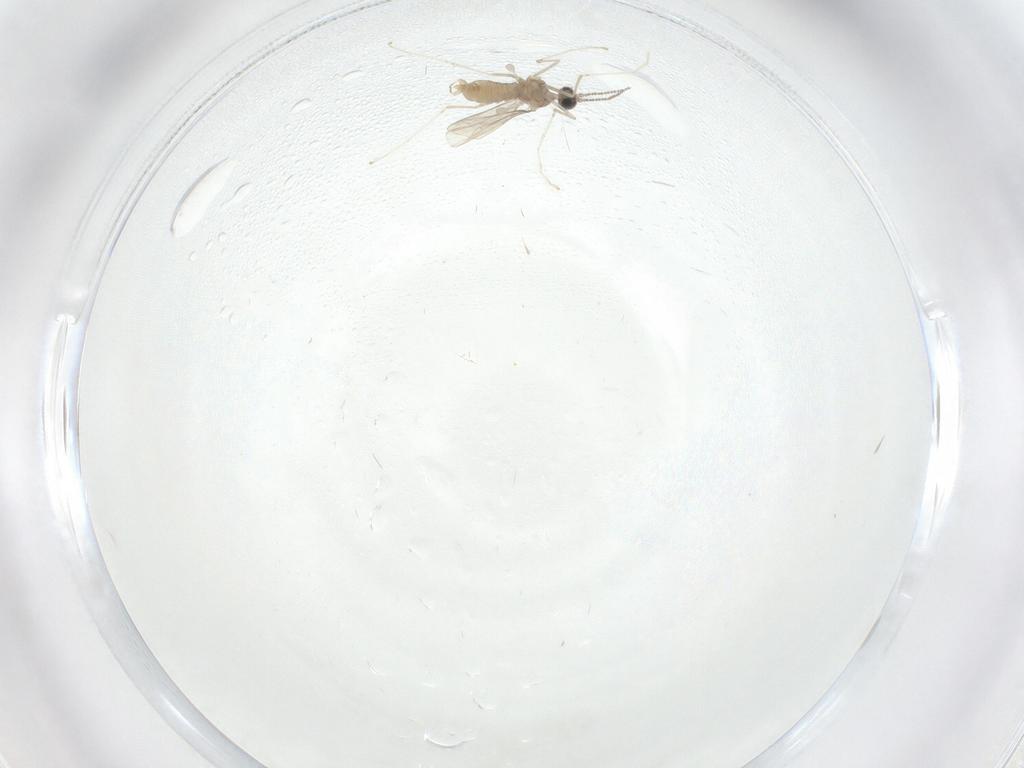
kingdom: Animalia
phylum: Arthropoda
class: Insecta
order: Diptera
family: Cecidomyiidae
